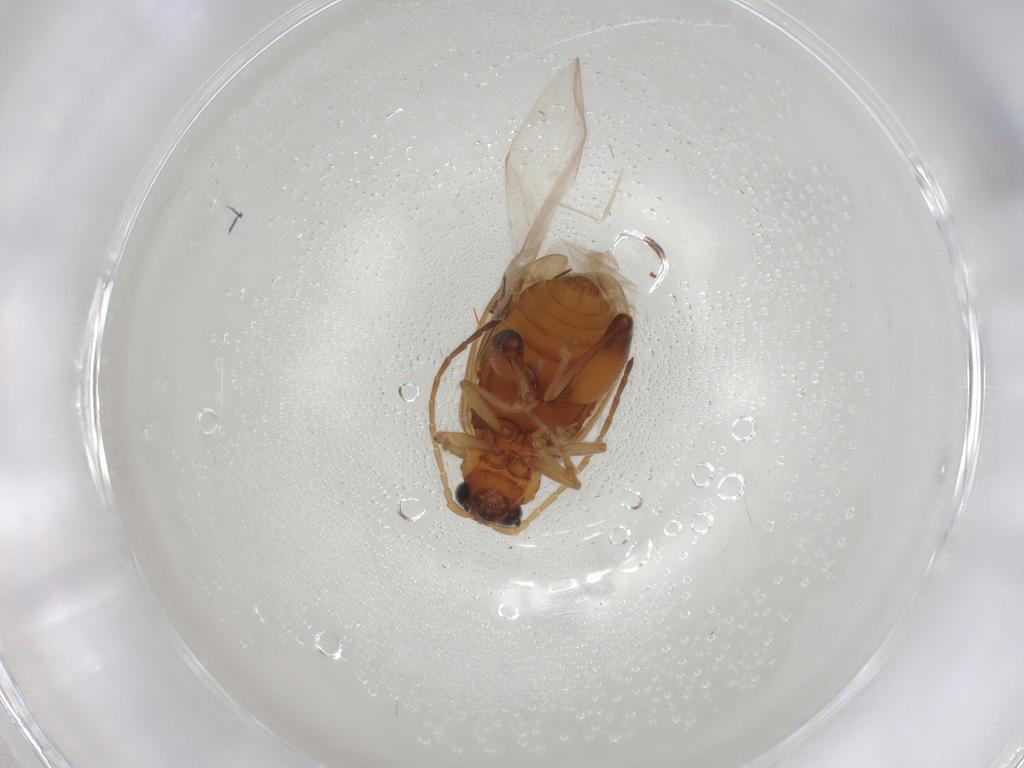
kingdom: Animalia
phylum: Arthropoda
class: Insecta
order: Coleoptera
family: Chrysomelidae
